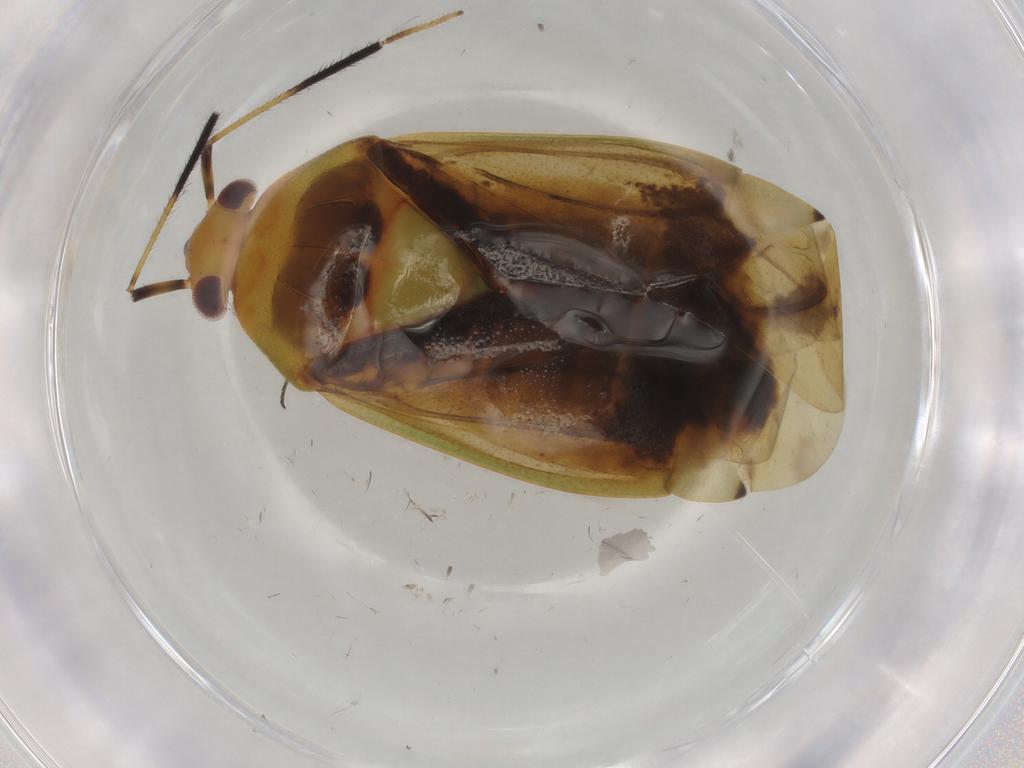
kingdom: Animalia
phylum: Arthropoda
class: Insecta
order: Hemiptera
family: Miridae
